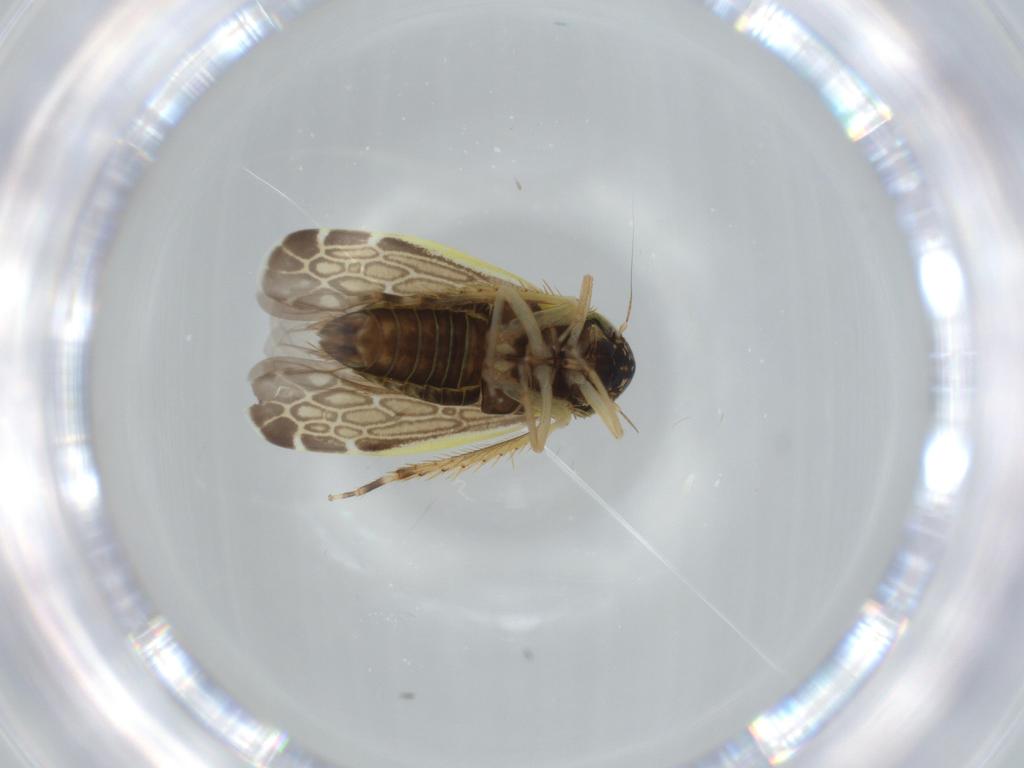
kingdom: Animalia
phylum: Arthropoda
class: Insecta
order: Hemiptera
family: Cicadellidae
